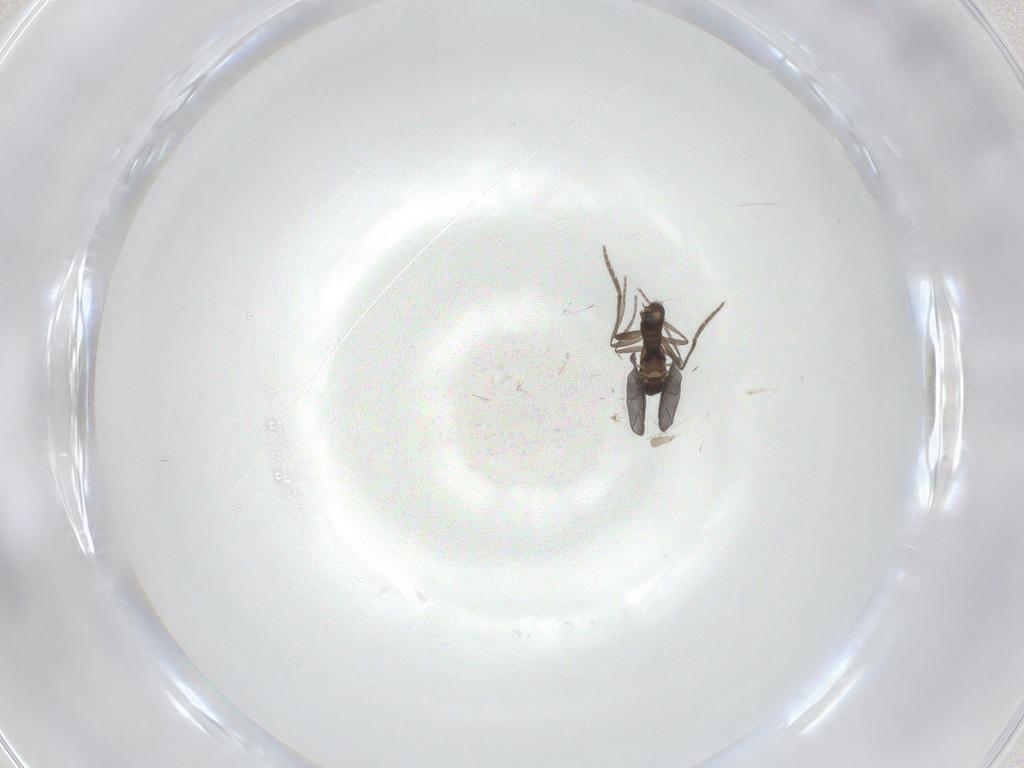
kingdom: Animalia
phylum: Arthropoda
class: Insecta
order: Diptera
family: Phoridae
